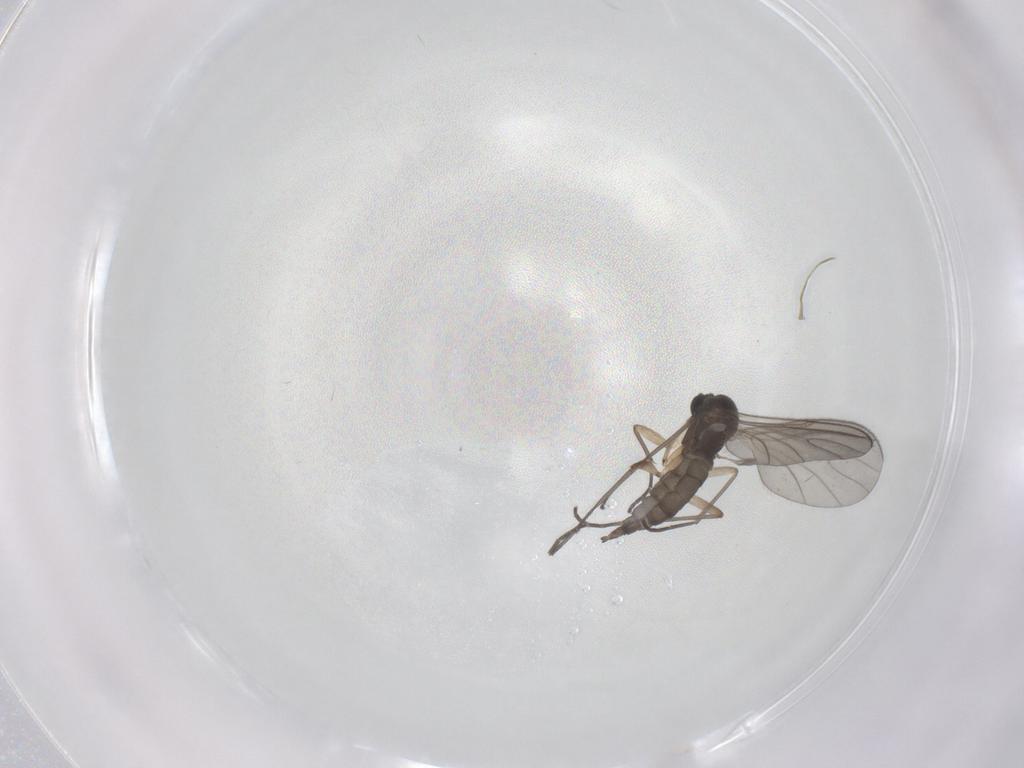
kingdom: Animalia
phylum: Arthropoda
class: Insecta
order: Diptera
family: Sciaridae
